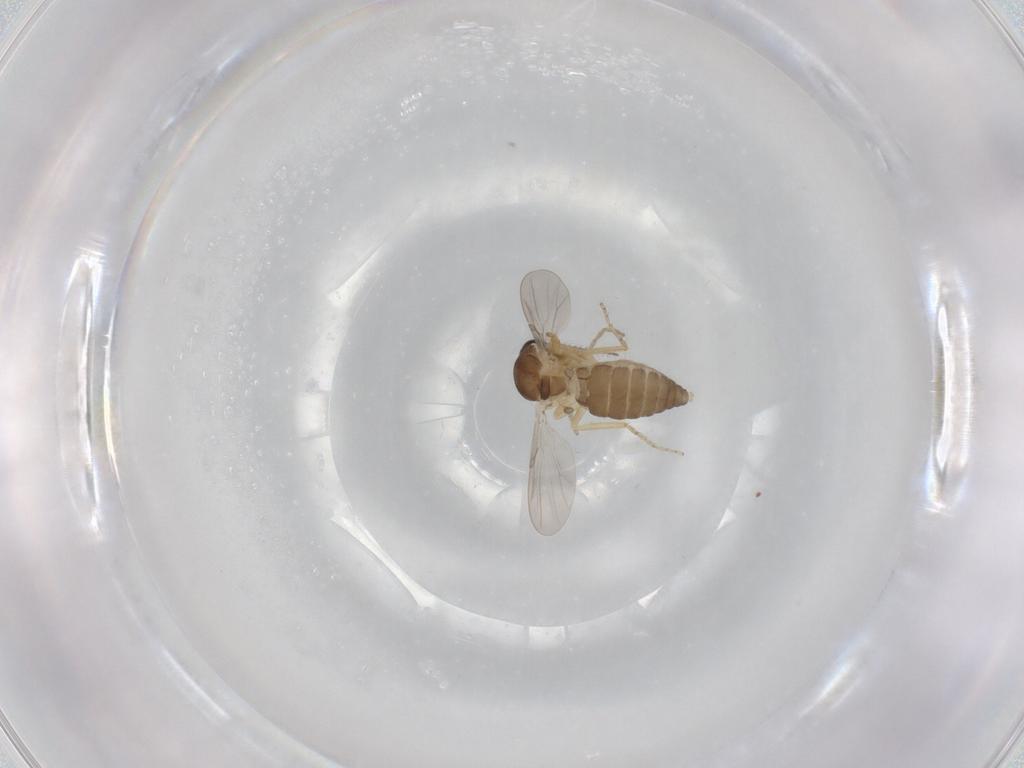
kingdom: Animalia
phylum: Arthropoda
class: Insecta
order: Diptera
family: Ceratopogonidae
